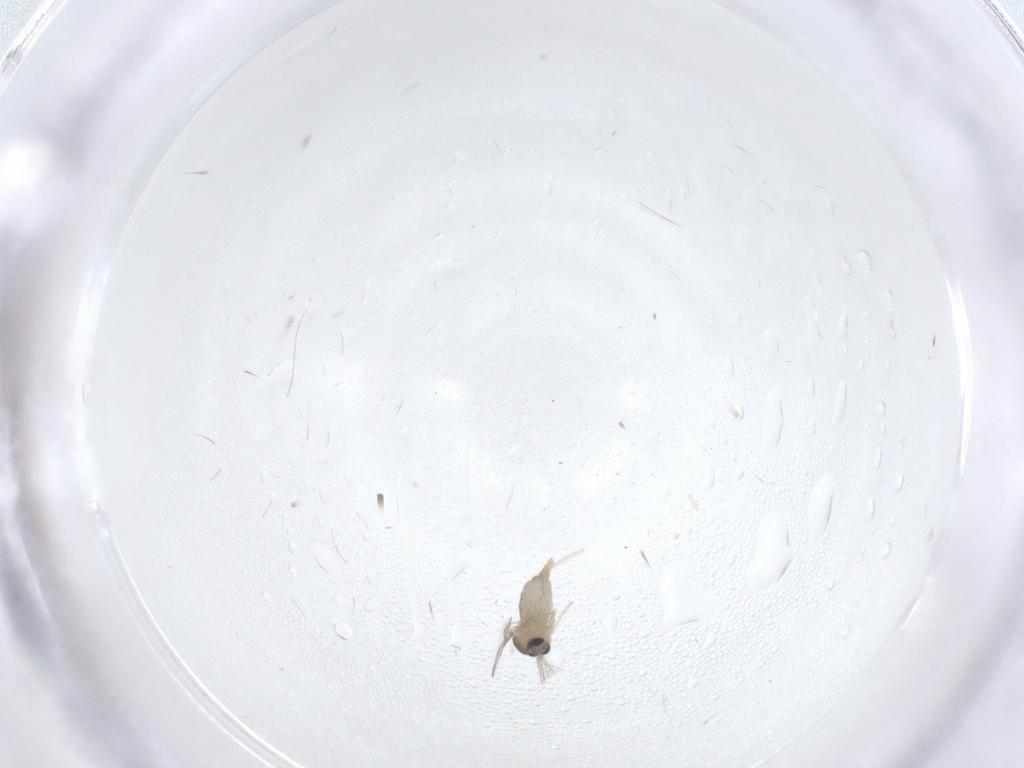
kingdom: Animalia
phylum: Arthropoda
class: Insecta
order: Diptera
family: Cecidomyiidae
